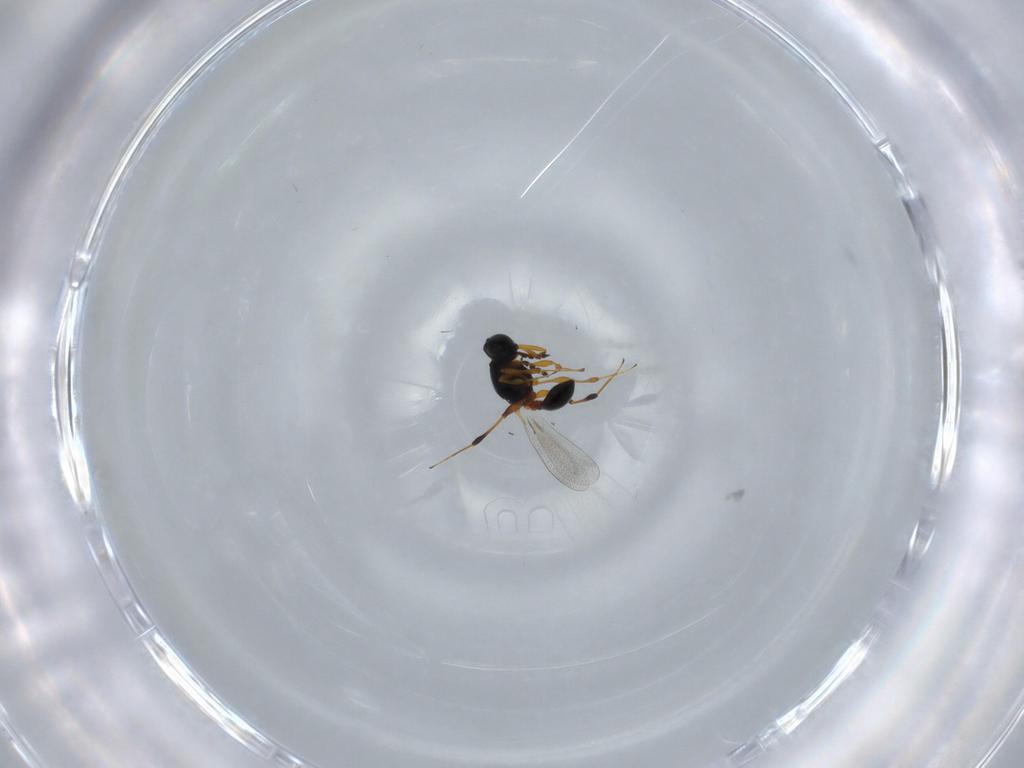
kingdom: Animalia
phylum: Arthropoda
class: Insecta
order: Hymenoptera
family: Platygastridae
